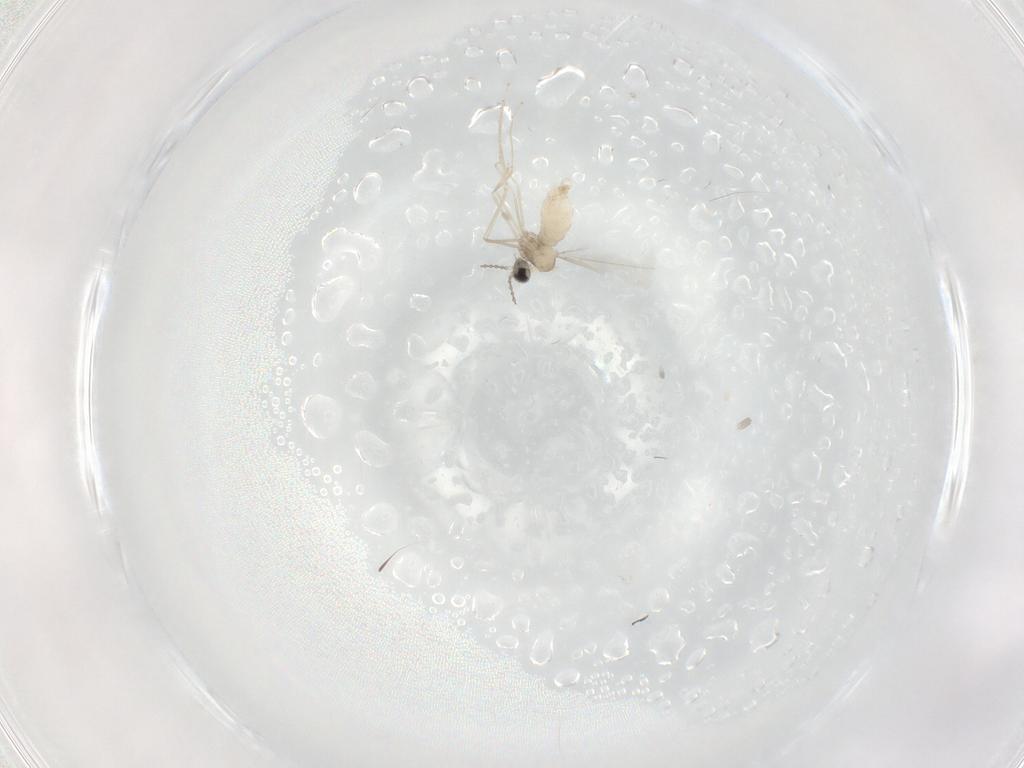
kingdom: Animalia
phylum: Arthropoda
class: Insecta
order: Diptera
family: Cecidomyiidae
